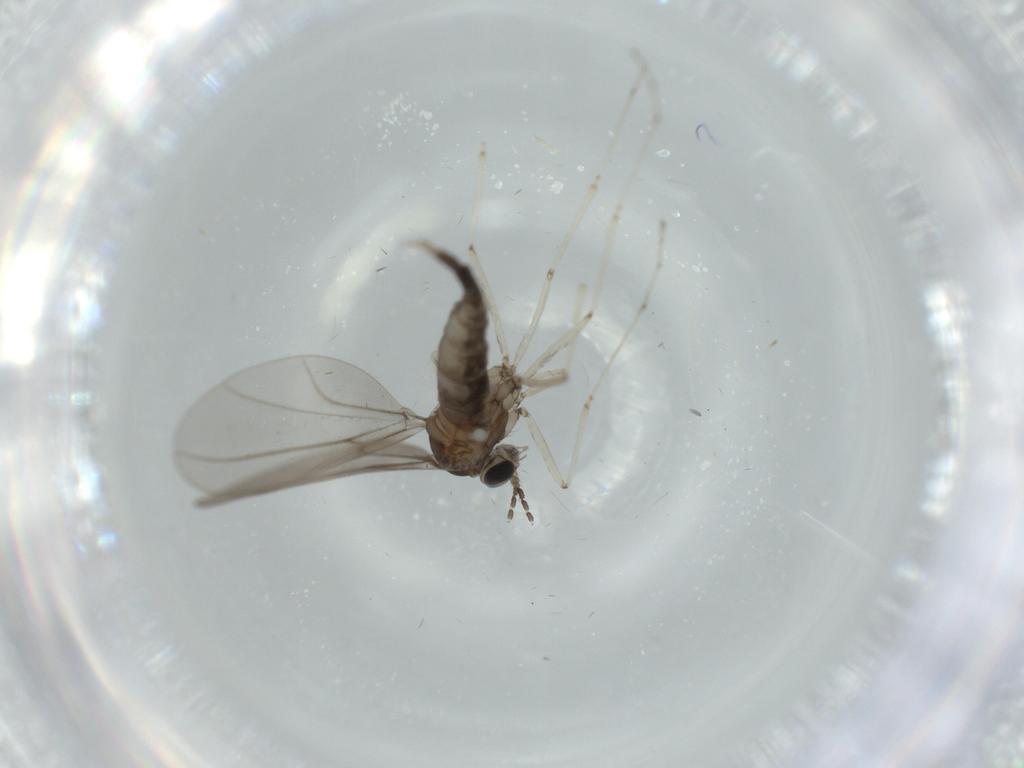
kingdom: Animalia
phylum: Arthropoda
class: Insecta
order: Diptera
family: Cecidomyiidae
